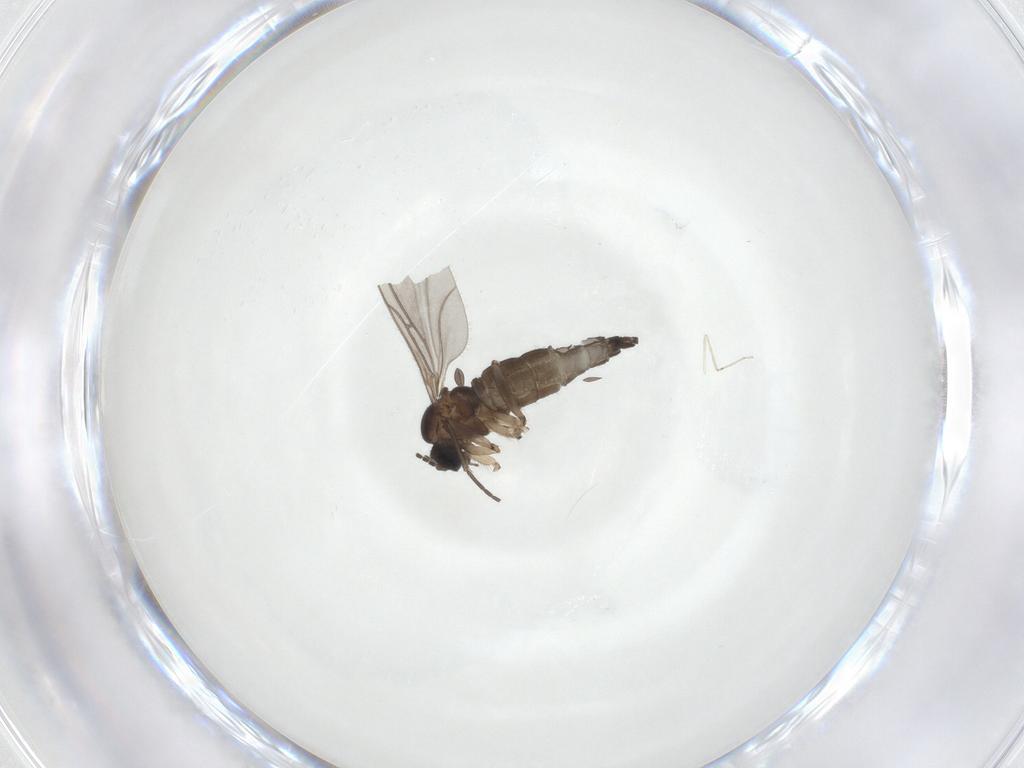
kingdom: Animalia
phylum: Arthropoda
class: Insecta
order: Diptera
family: Sciaridae
